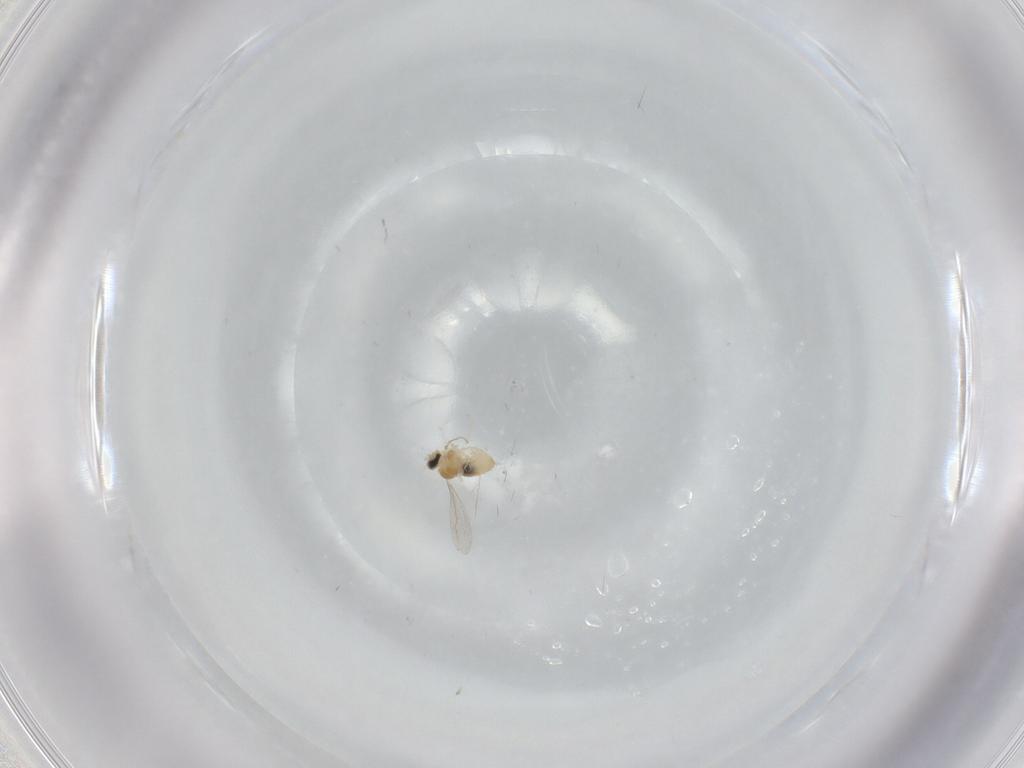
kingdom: Animalia
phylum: Arthropoda
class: Insecta
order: Diptera
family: Cecidomyiidae
